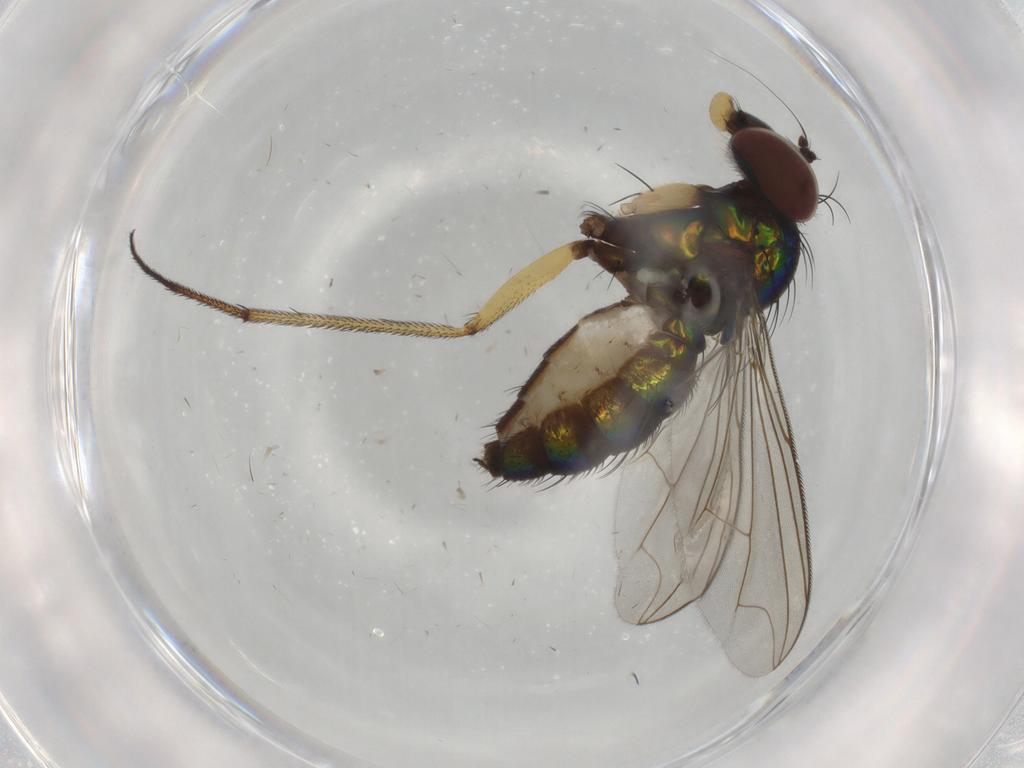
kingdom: Animalia
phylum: Arthropoda
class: Insecta
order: Diptera
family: Dolichopodidae
